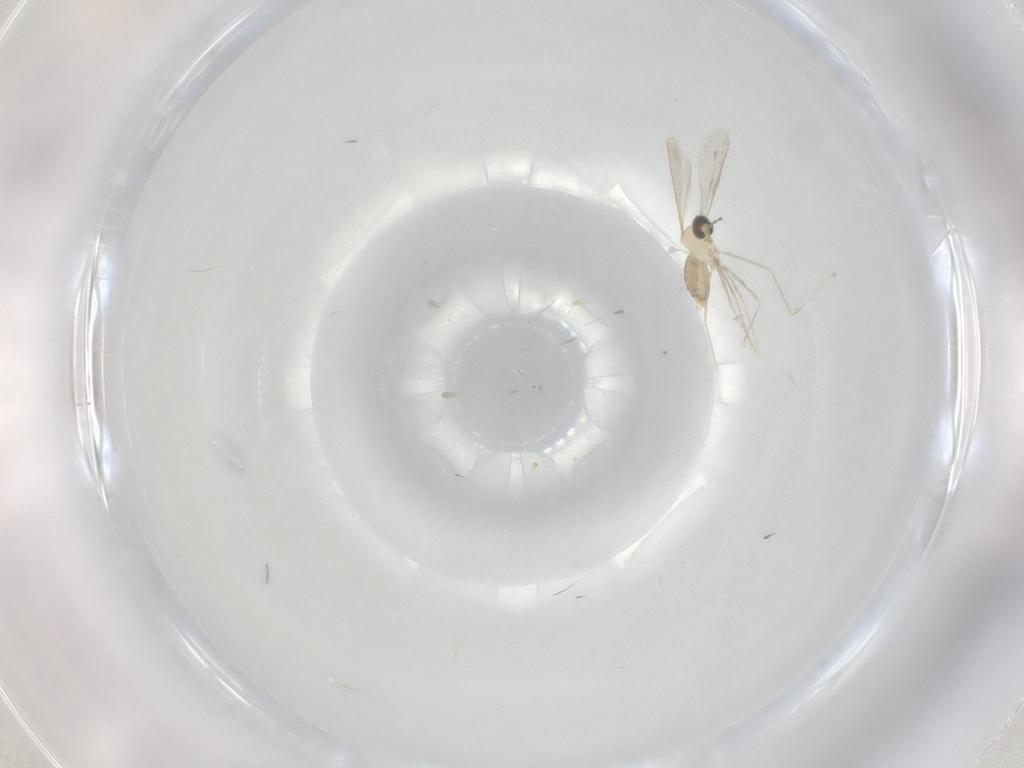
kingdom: Animalia
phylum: Arthropoda
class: Insecta
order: Diptera
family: Cecidomyiidae
